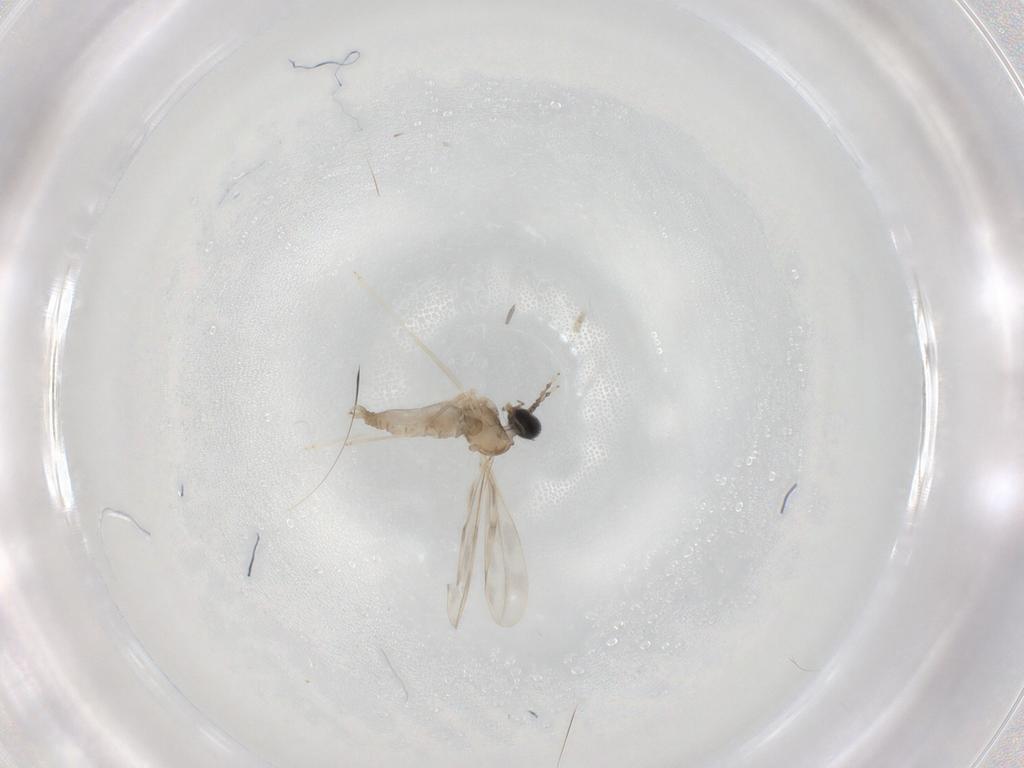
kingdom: Animalia
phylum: Arthropoda
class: Insecta
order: Diptera
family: Cecidomyiidae
